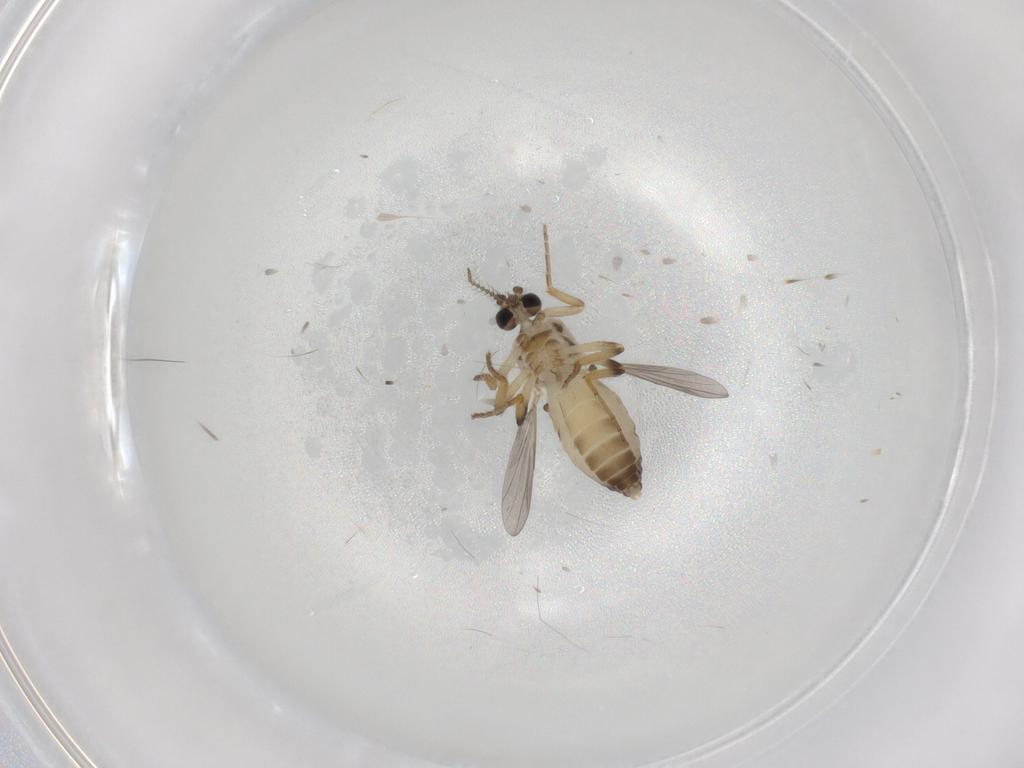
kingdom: Animalia
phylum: Arthropoda
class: Insecta
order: Diptera
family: Ceratopogonidae
